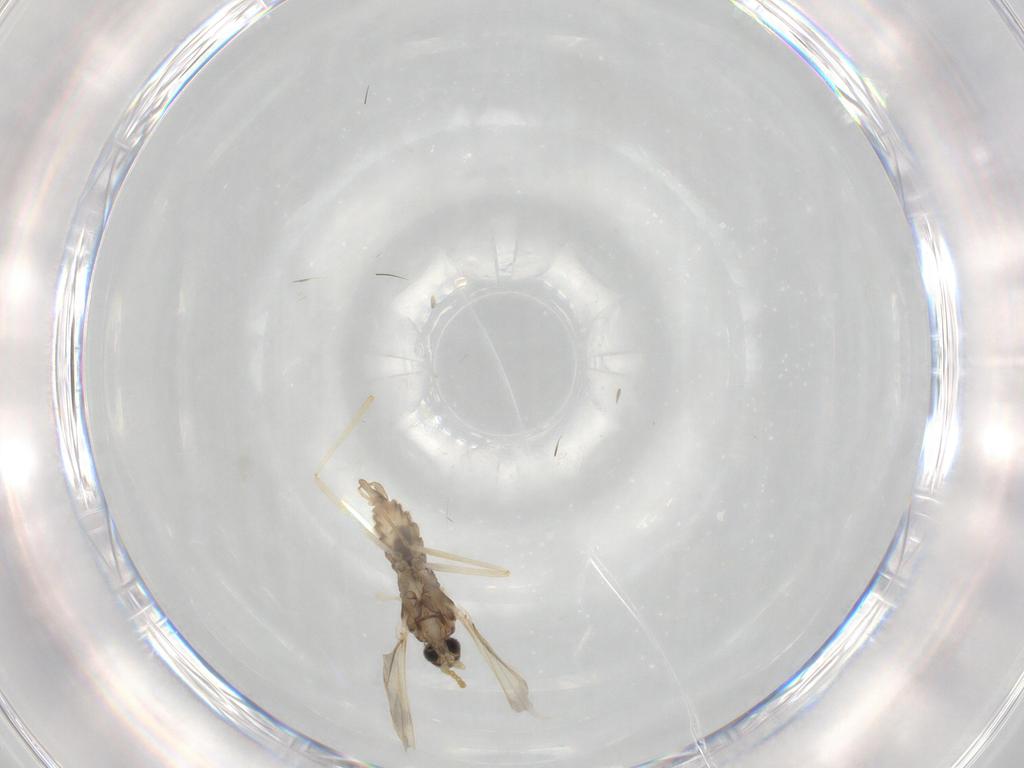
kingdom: Animalia
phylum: Arthropoda
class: Insecta
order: Diptera
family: Cecidomyiidae
